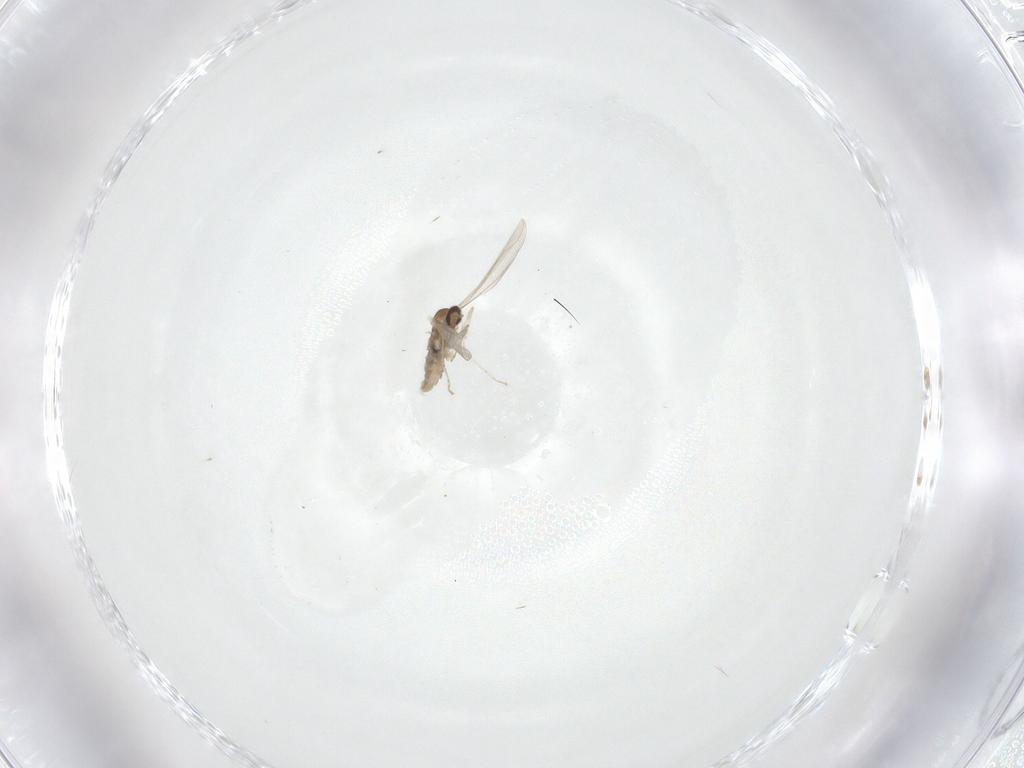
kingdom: Animalia
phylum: Arthropoda
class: Insecta
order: Diptera
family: Cecidomyiidae
